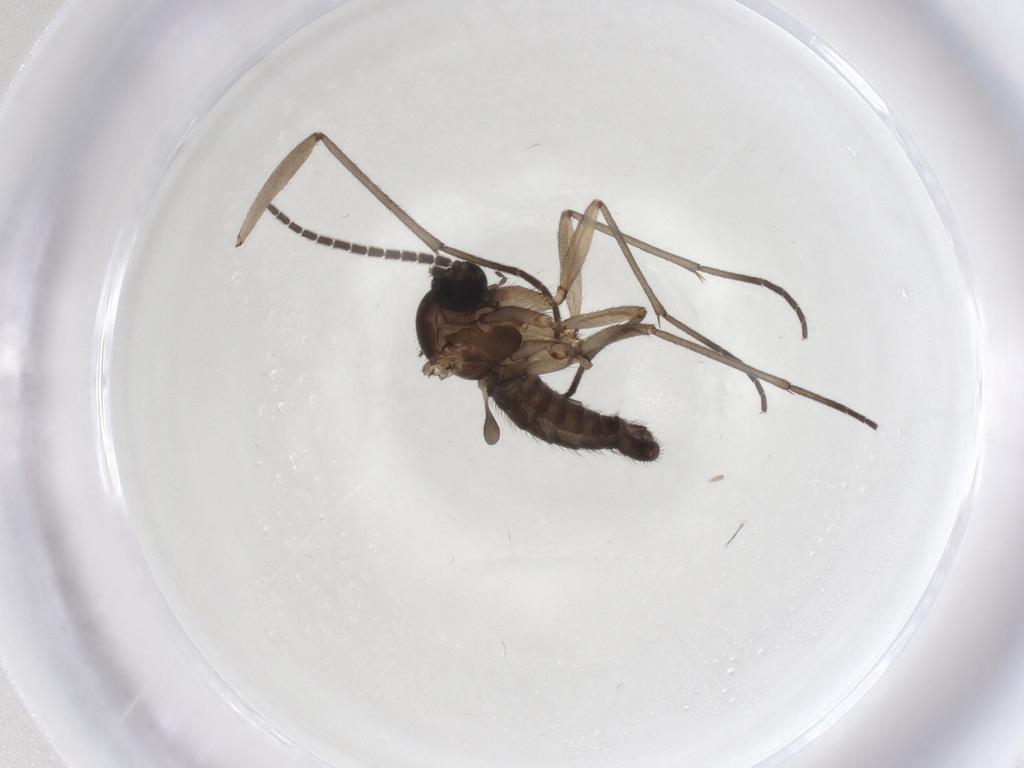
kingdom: Animalia
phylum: Arthropoda
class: Insecta
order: Diptera
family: Sciaridae
